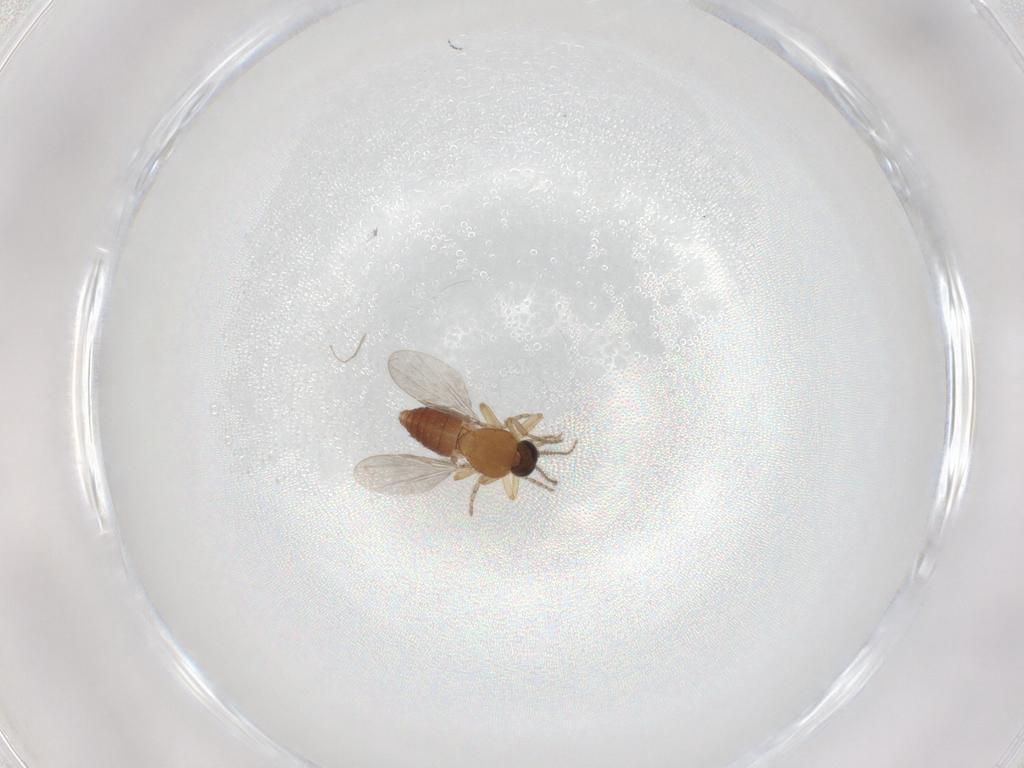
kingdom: Animalia
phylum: Arthropoda
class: Insecta
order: Diptera
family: Ceratopogonidae
